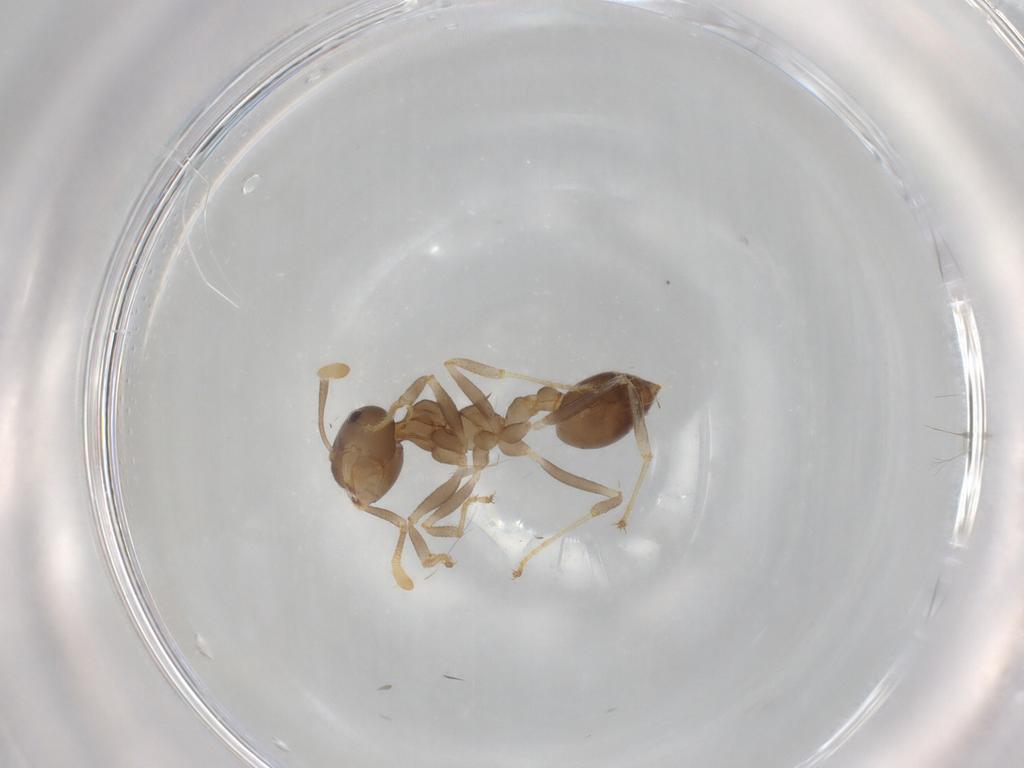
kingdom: Animalia
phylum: Arthropoda
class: Insecta
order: Hymenoptera
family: Formicidae
